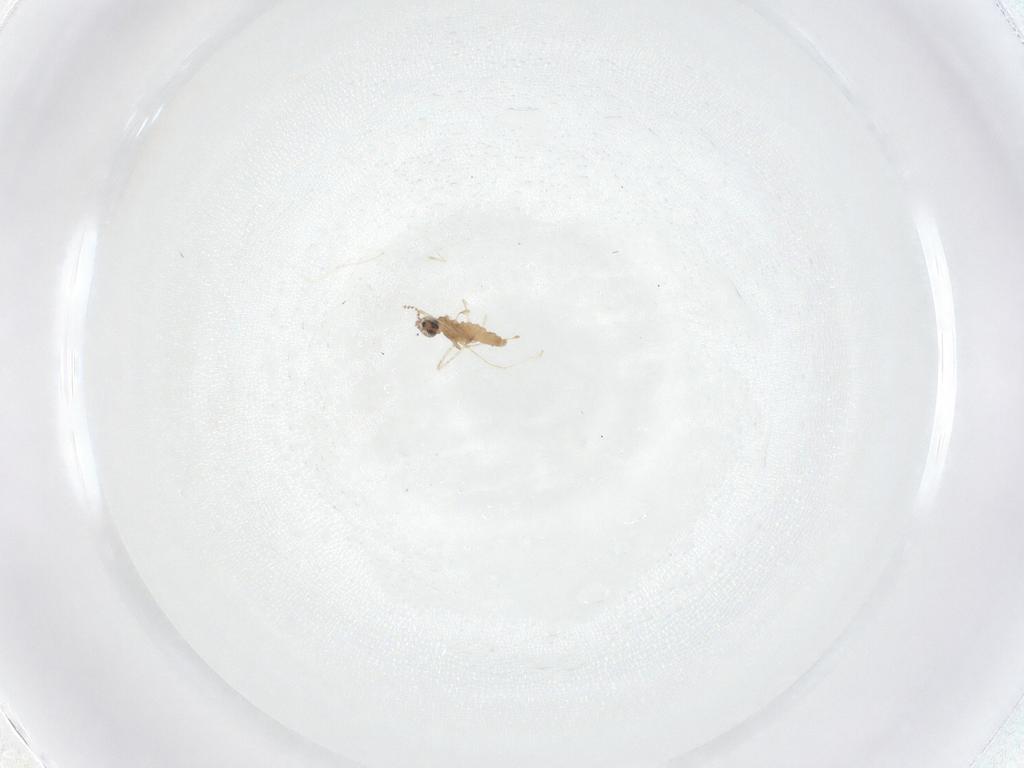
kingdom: Animalia
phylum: Arthropoda
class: Insecta
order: Diptera
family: Cecidomyiidae
